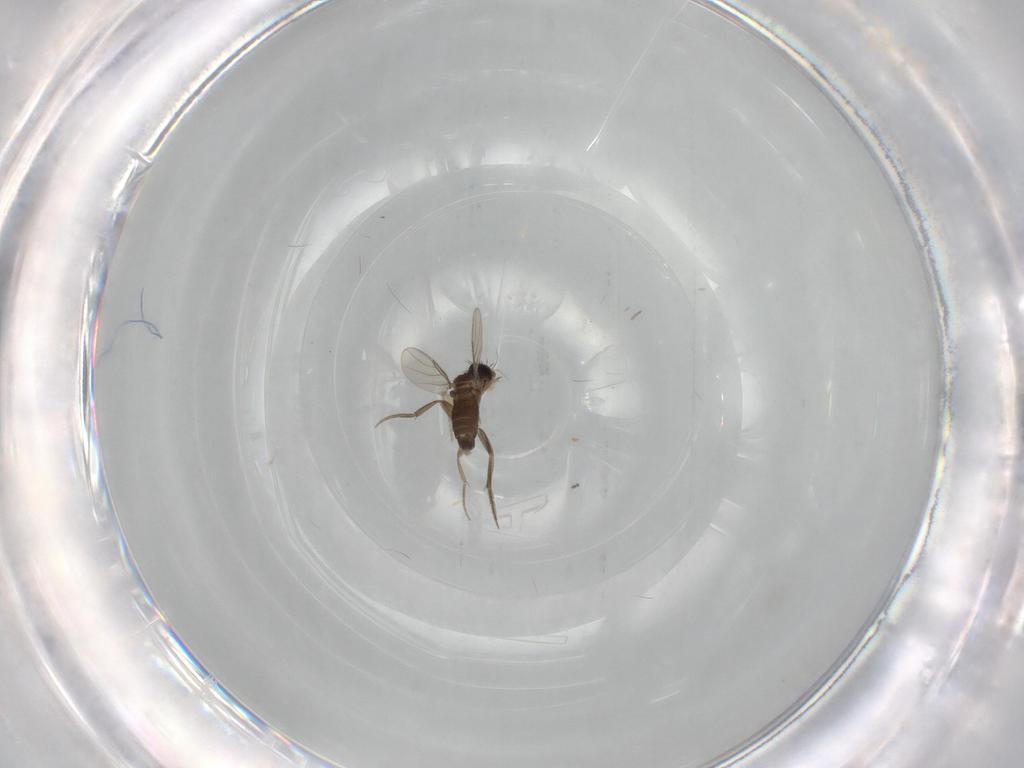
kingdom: Animalia
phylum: Arthropoda
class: Insecta
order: Diptera
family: Phoridae
